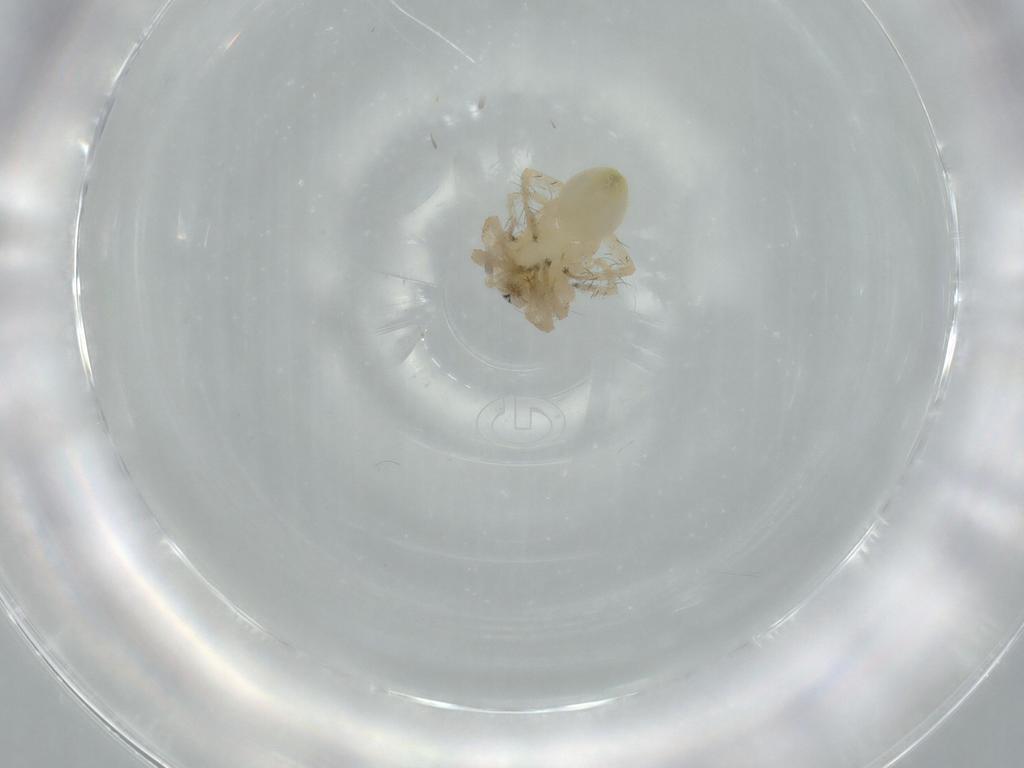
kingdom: Animalia
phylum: Arthropoda
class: Arachnida
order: Araneae
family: Anyphaenidae
